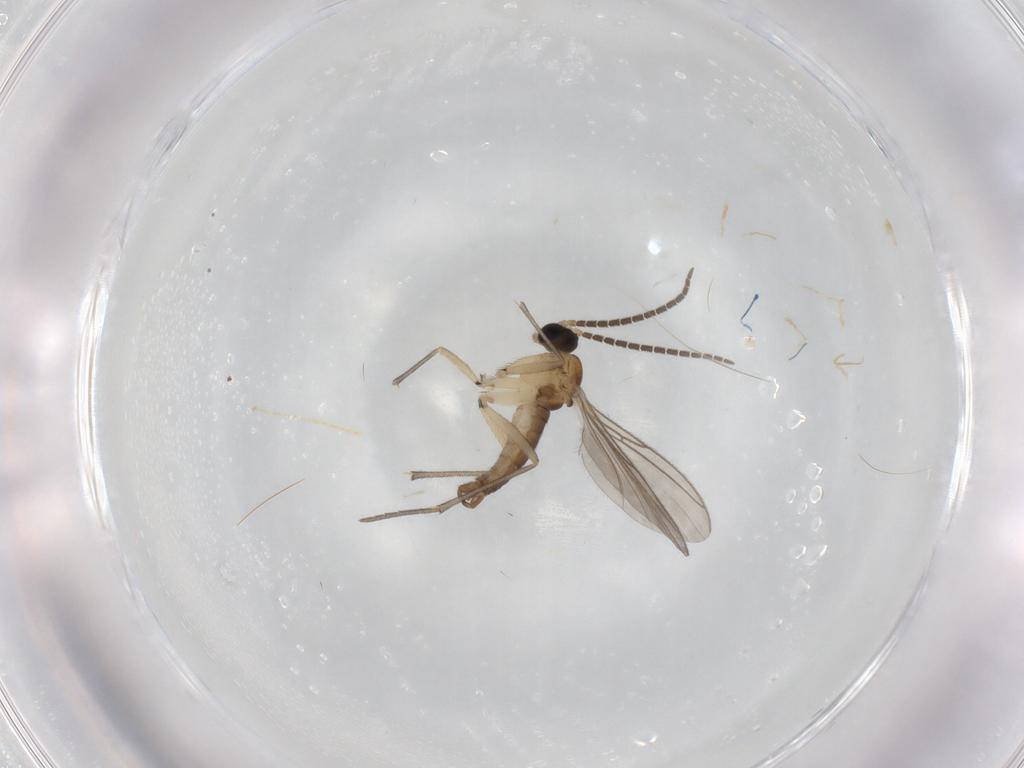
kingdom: Animalia
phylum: Arthropoda
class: Insecta
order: Diptera
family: Sciaridae
